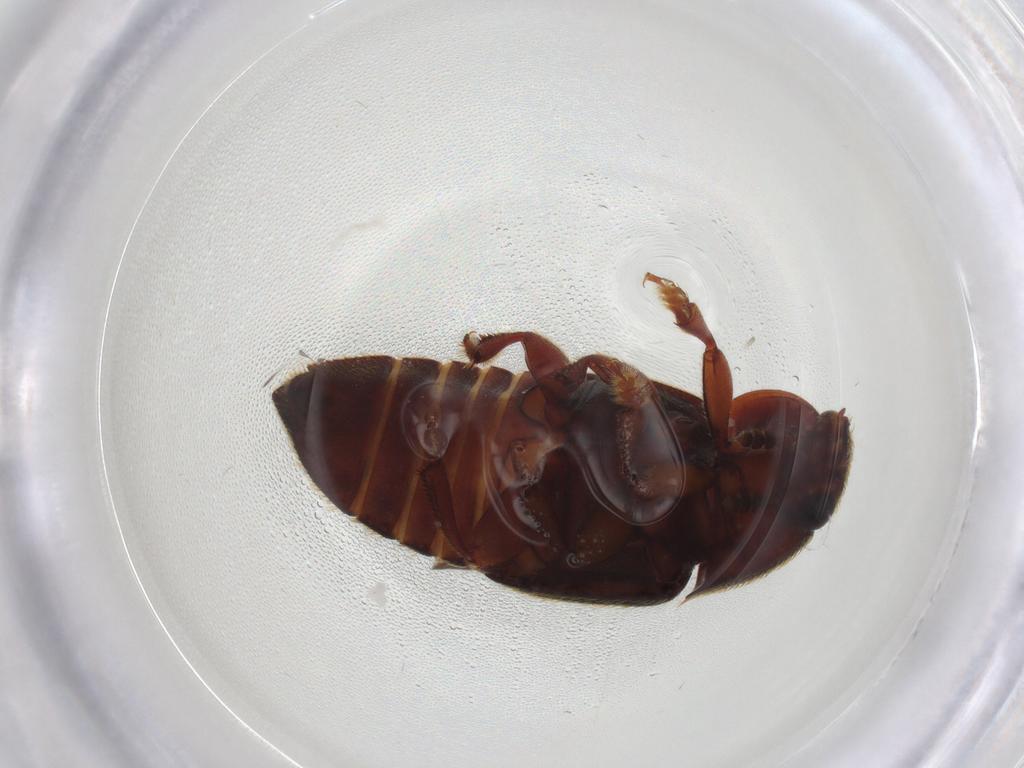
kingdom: Animalia
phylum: Arthropoda
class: Insecta
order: Coleoptera
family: Nitidulidae
